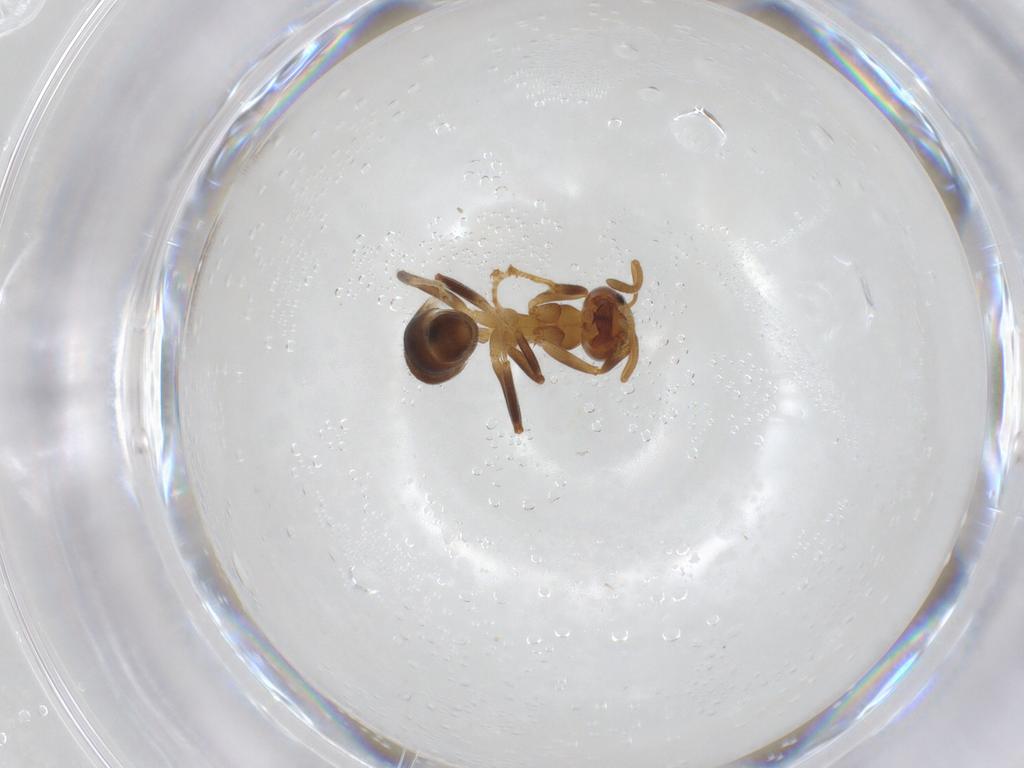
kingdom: Animalia
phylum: Arthropoda
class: Insecta
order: Hymenoptera
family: Formicidae
